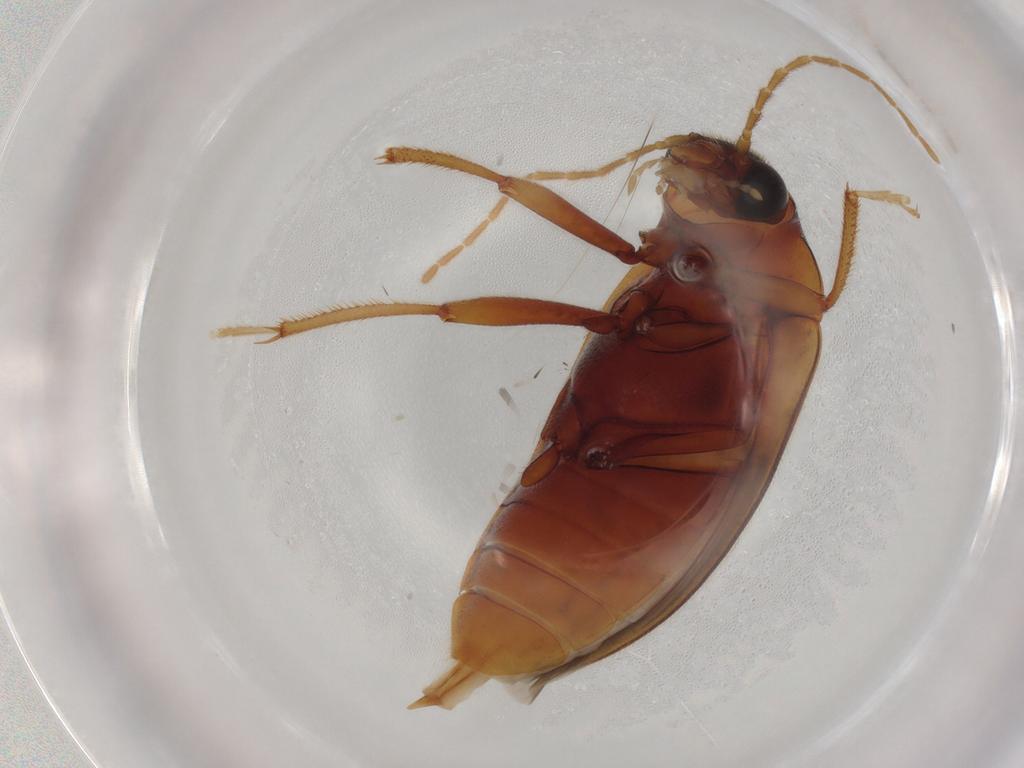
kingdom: Animalia
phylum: Arthropoda
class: Insecta
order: Coleoptera
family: Ptilodactylidae
